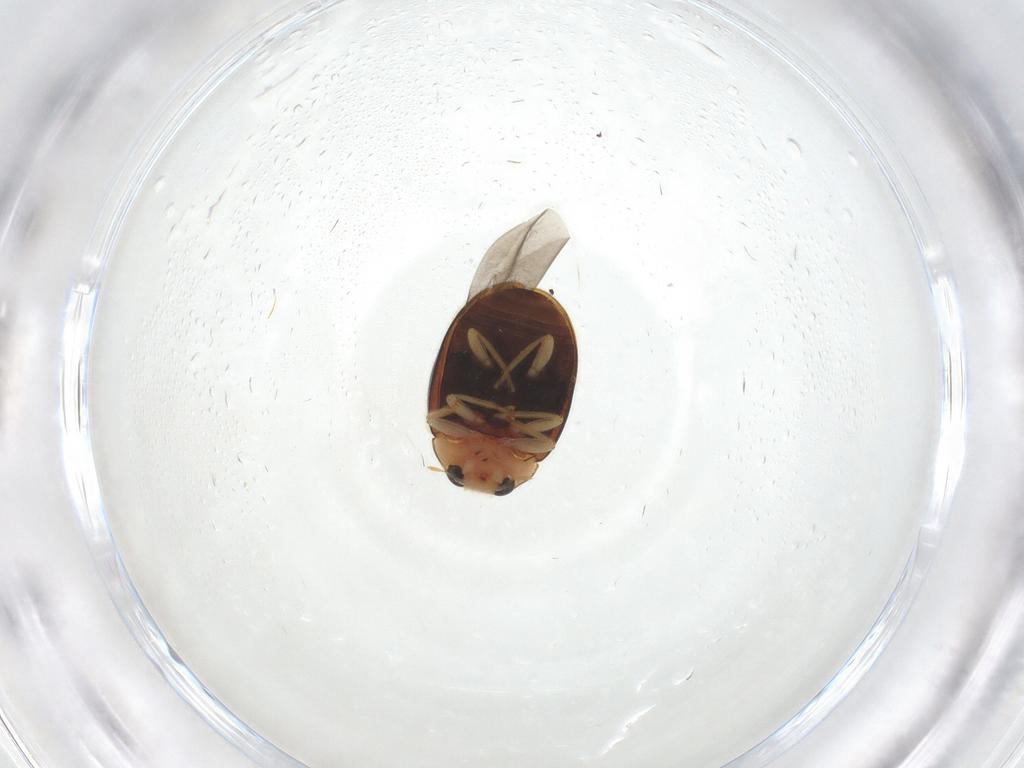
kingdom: Animalia
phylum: Arthropoda
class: Insecta
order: Coleoptera
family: Coccinellidae
